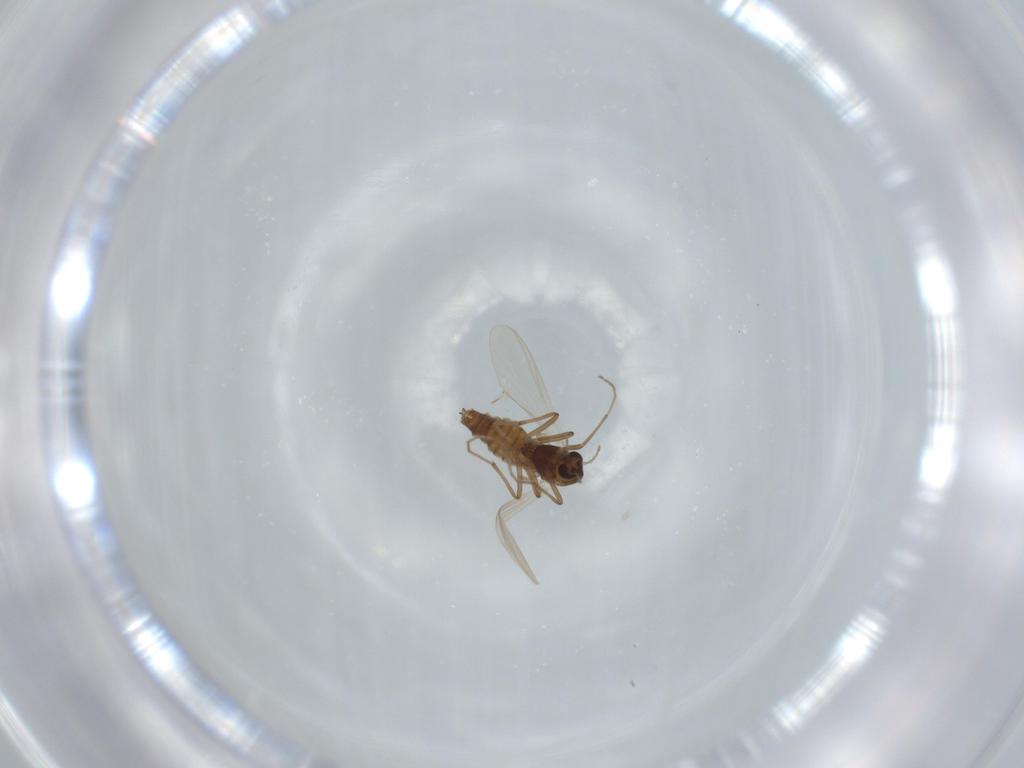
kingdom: Animalia
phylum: Arthropoda
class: Insecta
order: Diptera
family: Chironomidae
